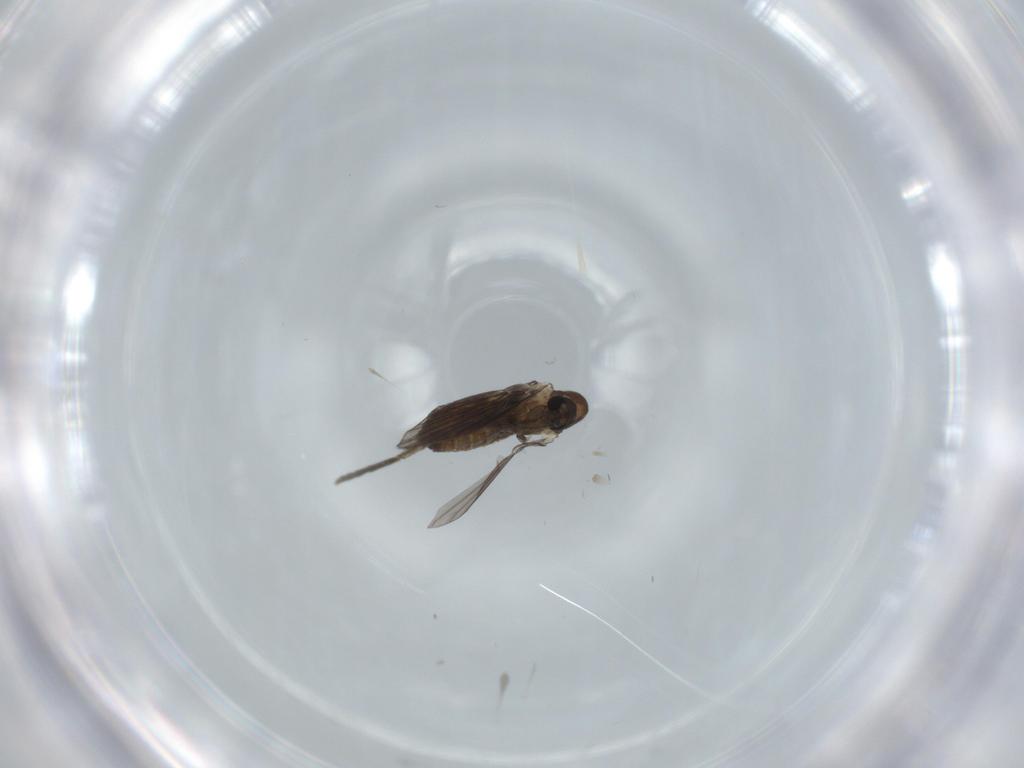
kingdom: Animalia
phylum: Arthropoda
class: Insecta
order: Diptera
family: Psychodidae
